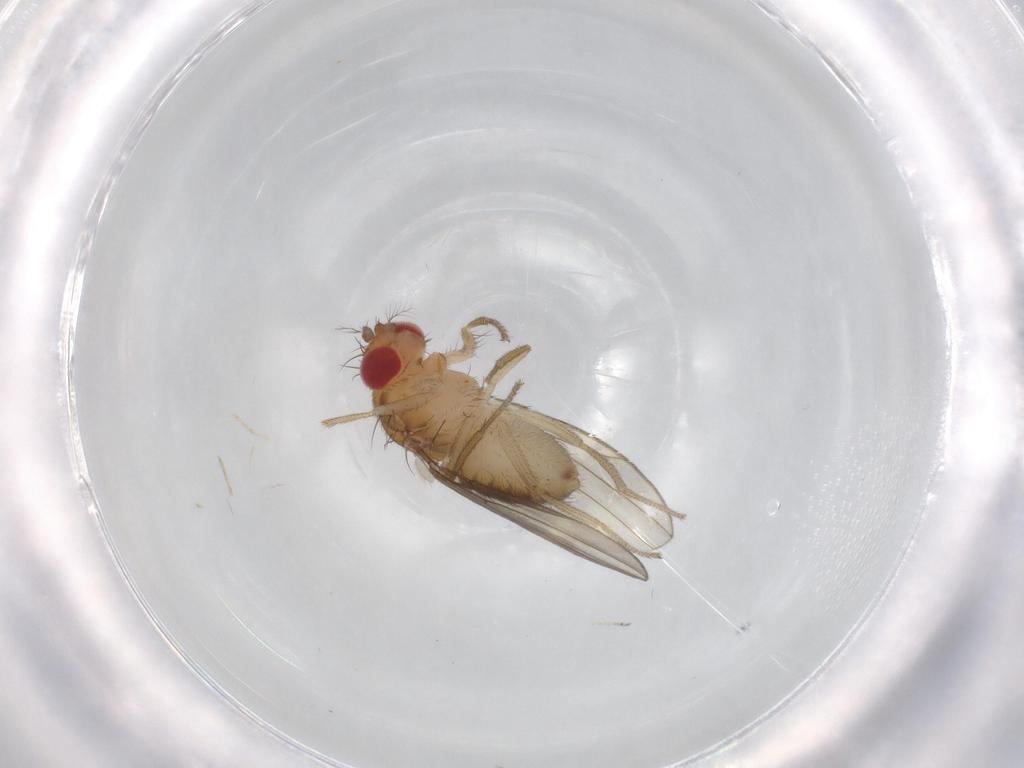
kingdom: Animalia
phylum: Arthropoda
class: Insecta
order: Diptera
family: Drosophilidae
